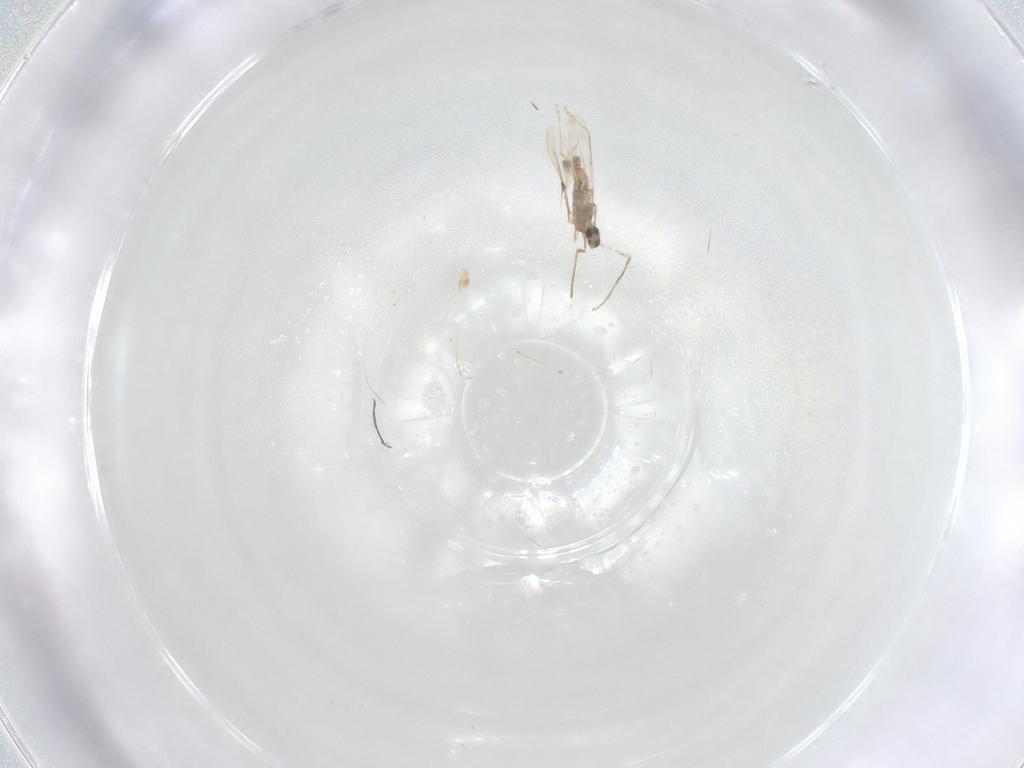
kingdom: Animalia
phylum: Arthropoda
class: Insecta
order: Diptera
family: Cecidomyiidae
